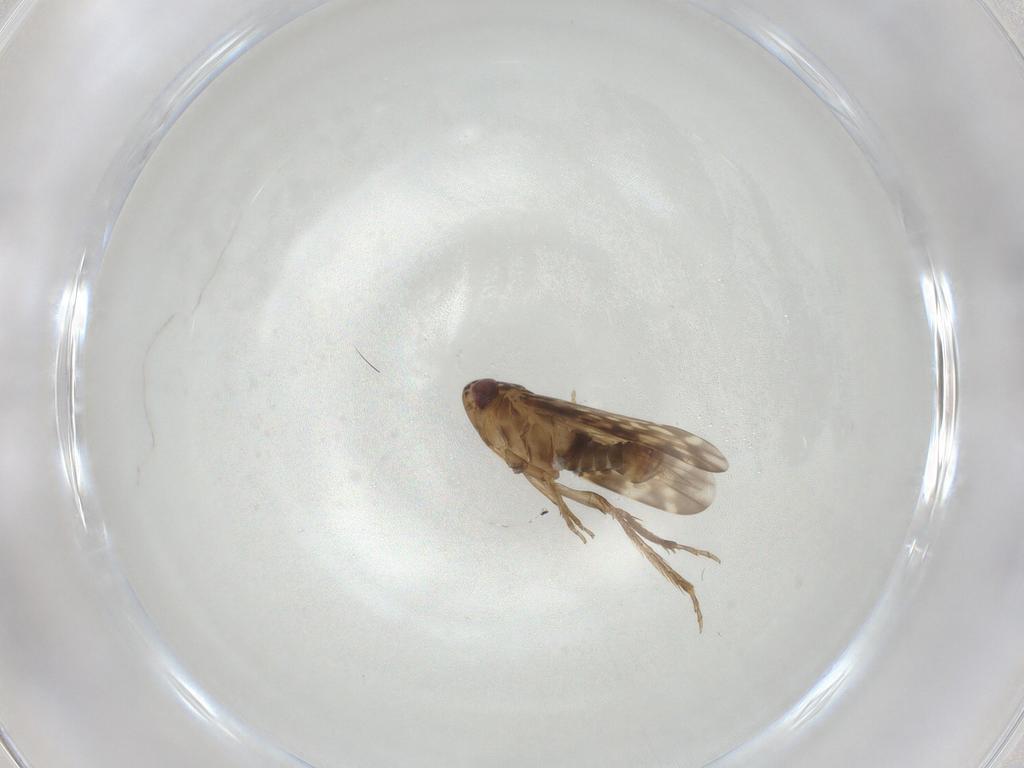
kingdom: Animalia
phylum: Arthropoda
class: Insecta
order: Hemiptera
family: Cicadellidae
